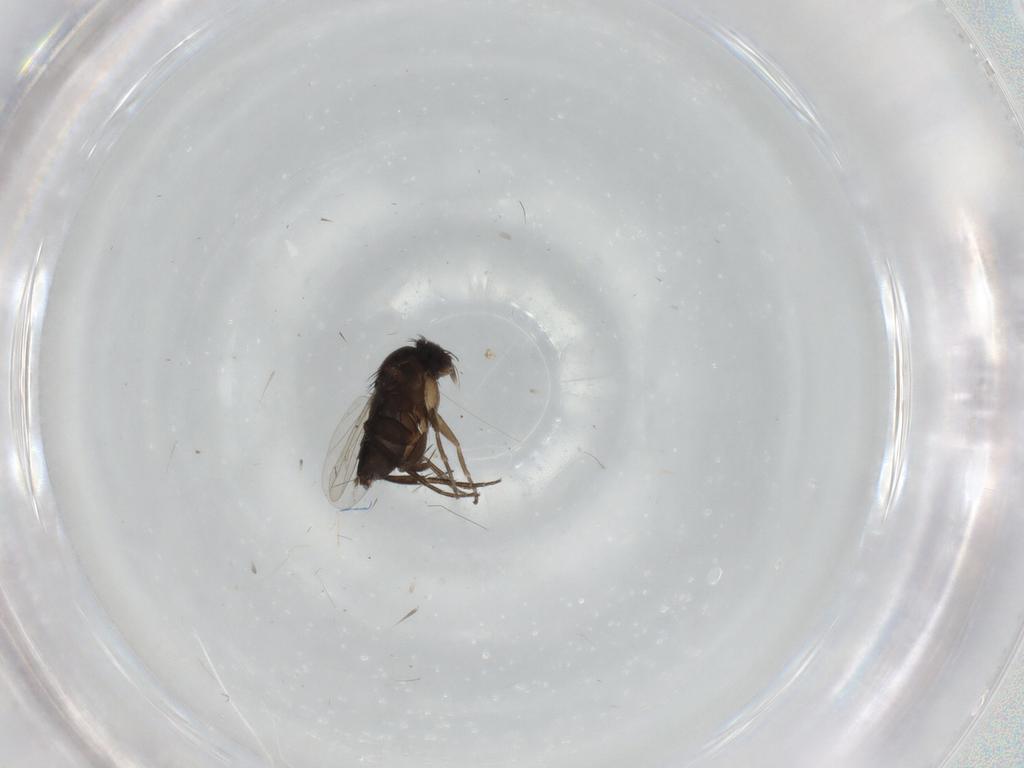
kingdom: Animalia
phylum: Arthropoda
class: Insecta
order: Diptera
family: Phoridae
